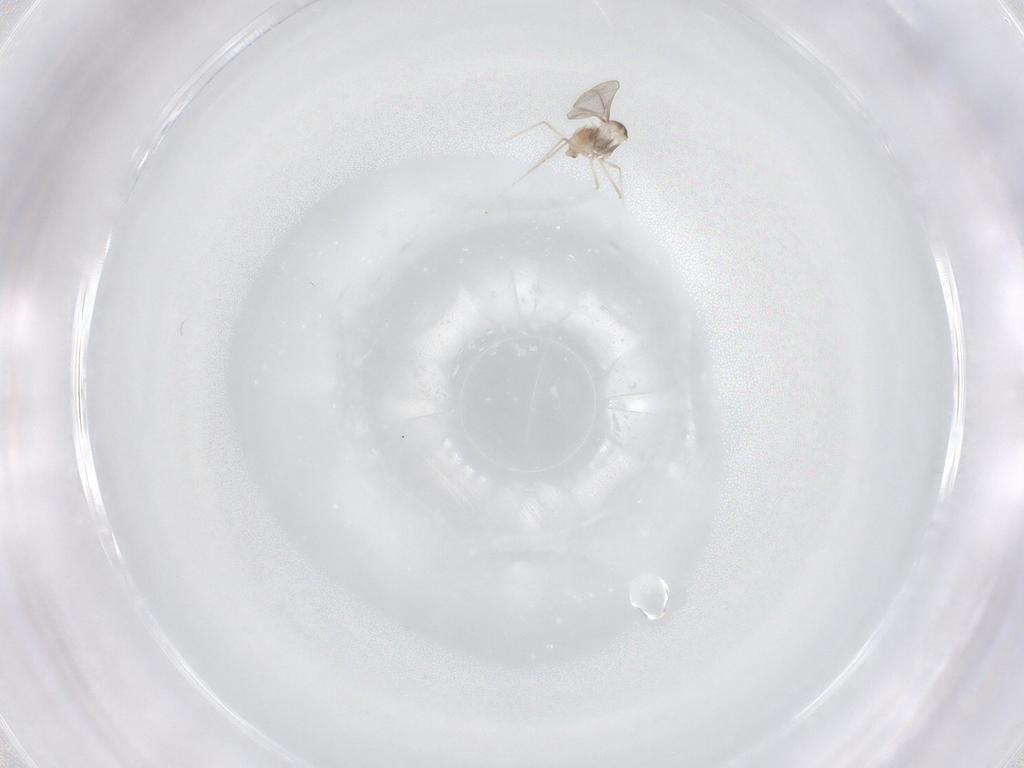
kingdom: Animalia
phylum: Arthropoda
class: Insecta
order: Diptera
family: Cecidomyiidae
